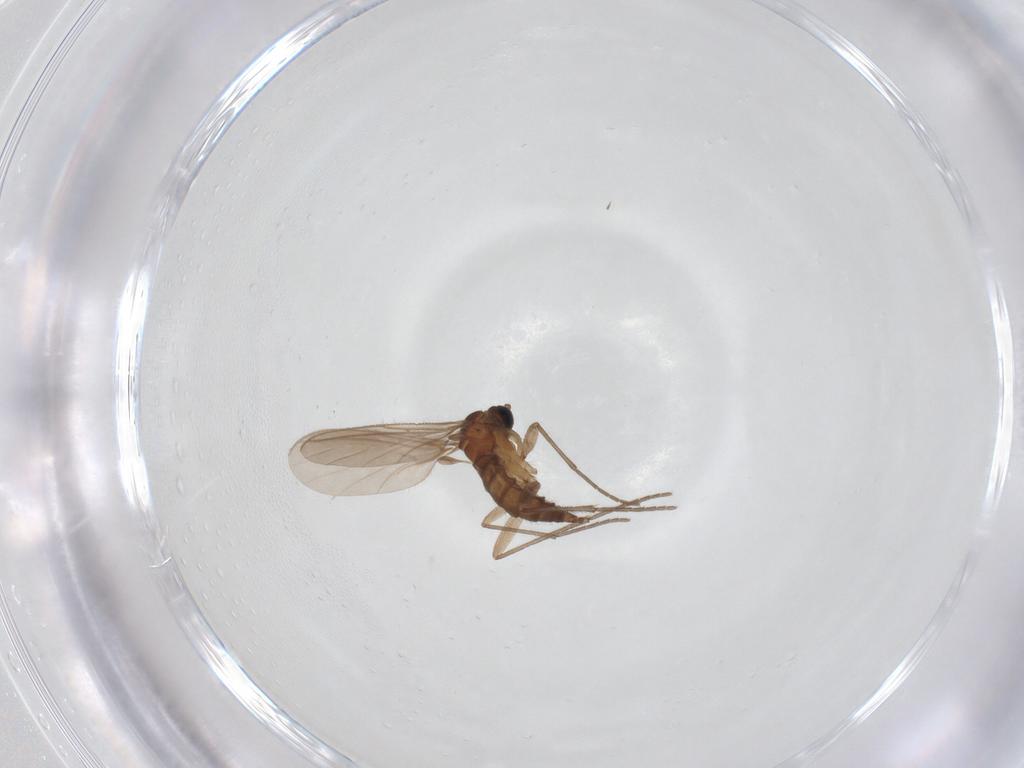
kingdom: Animalia
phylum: Arthropoda
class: Insecta
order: Diptera
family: Sciaridae
